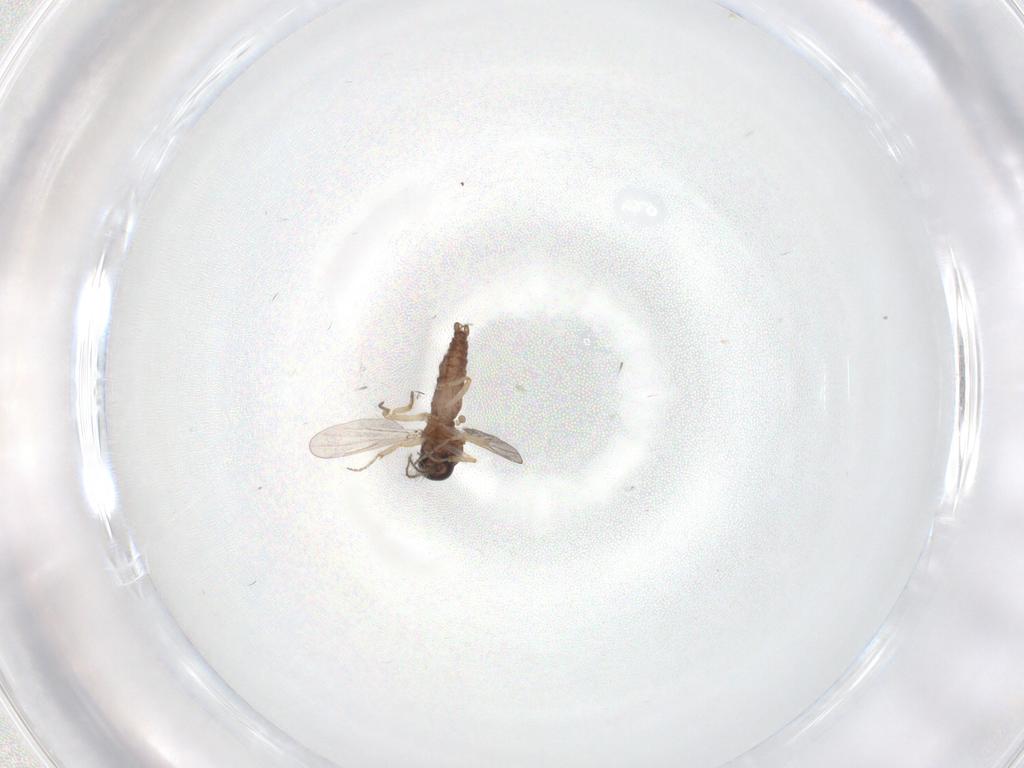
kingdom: Animalia
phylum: Arthropoda
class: Insecta
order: Diptera
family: Ceratopogonidae
